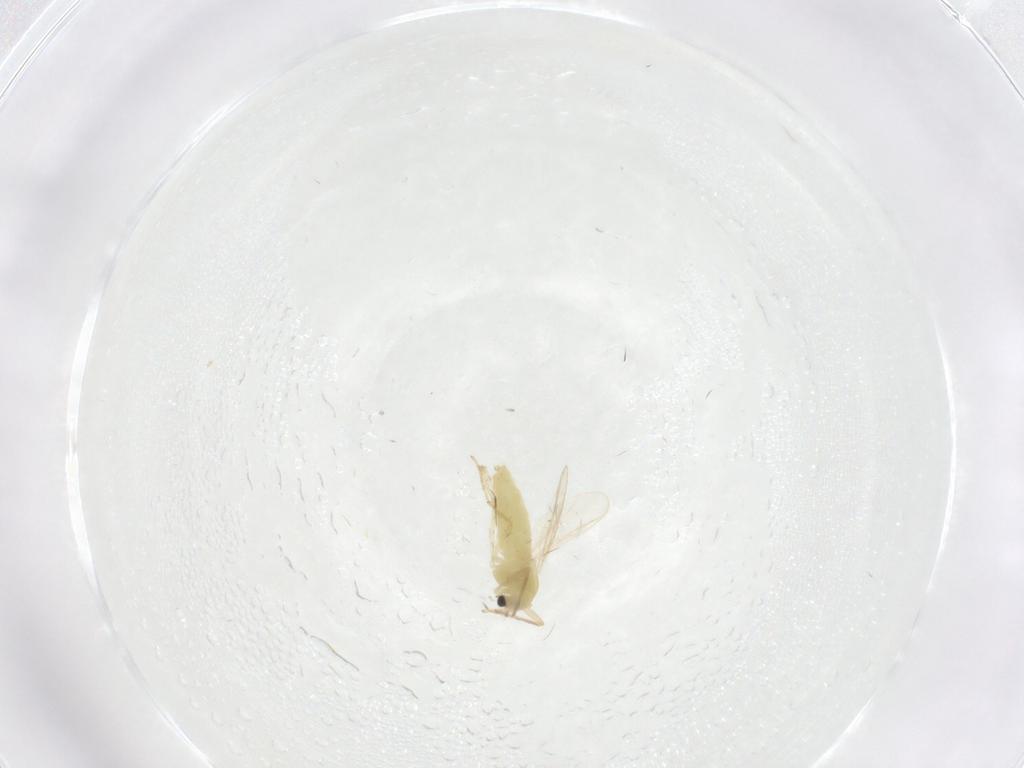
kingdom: Animalia
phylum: Arthropoda
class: Insecta
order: Diptera
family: Chironomidae
